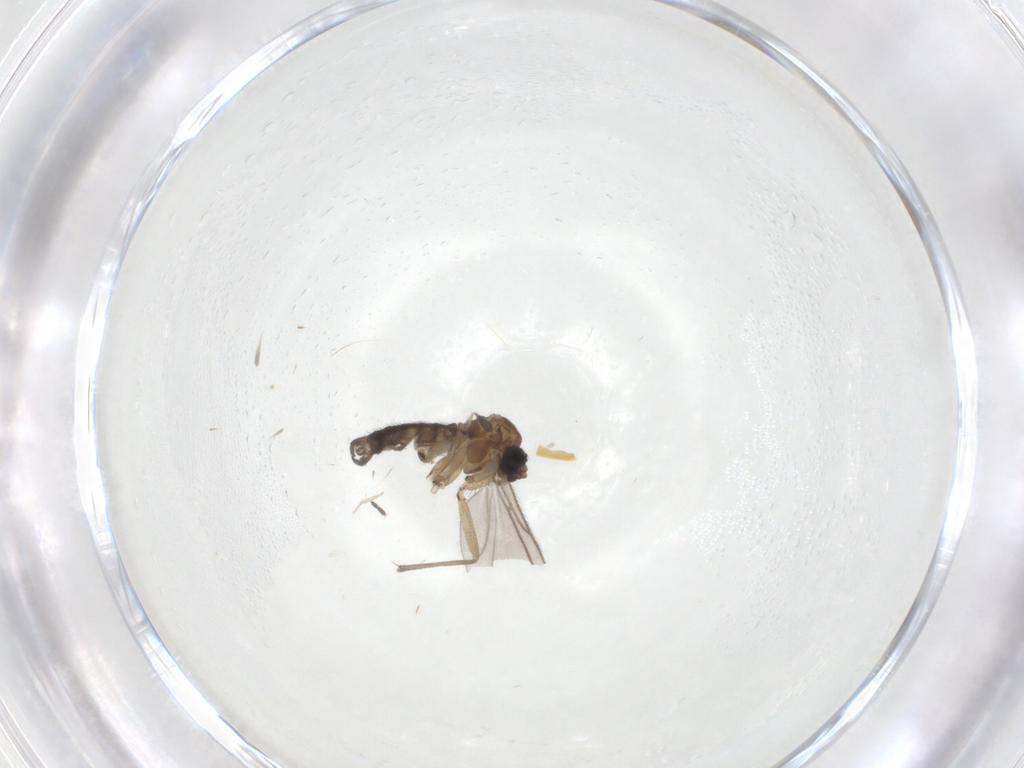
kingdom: Animalia
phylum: Arthropoda
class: Insecta
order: Diptera
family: Sciaridae
